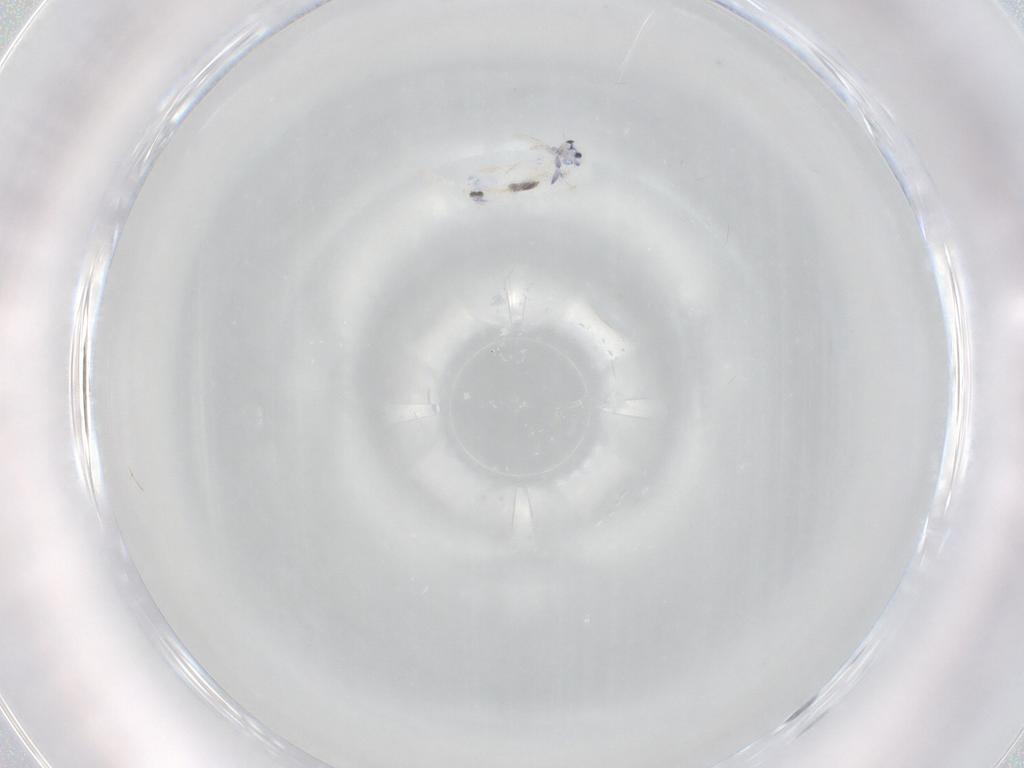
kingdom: Animalia
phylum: Arthropoda
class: Collembola
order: Entomobryomorpha
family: Entomobryidae
